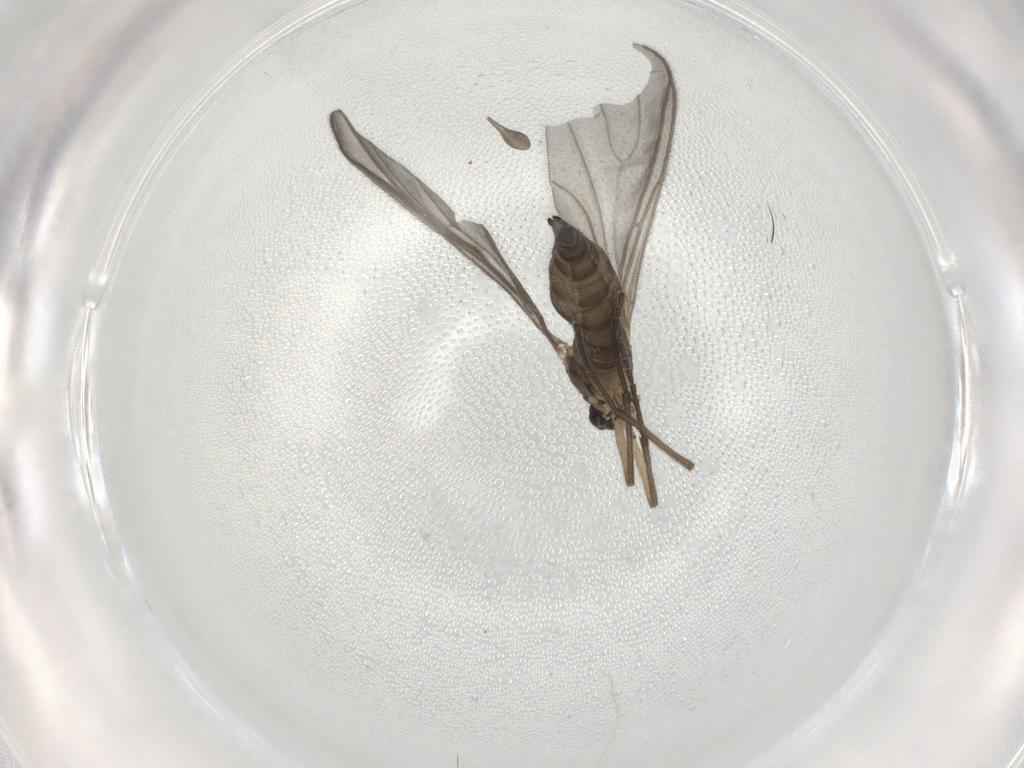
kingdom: Animalia
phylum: Arthropoda
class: Insecta
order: Diptera
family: Sciaridae
